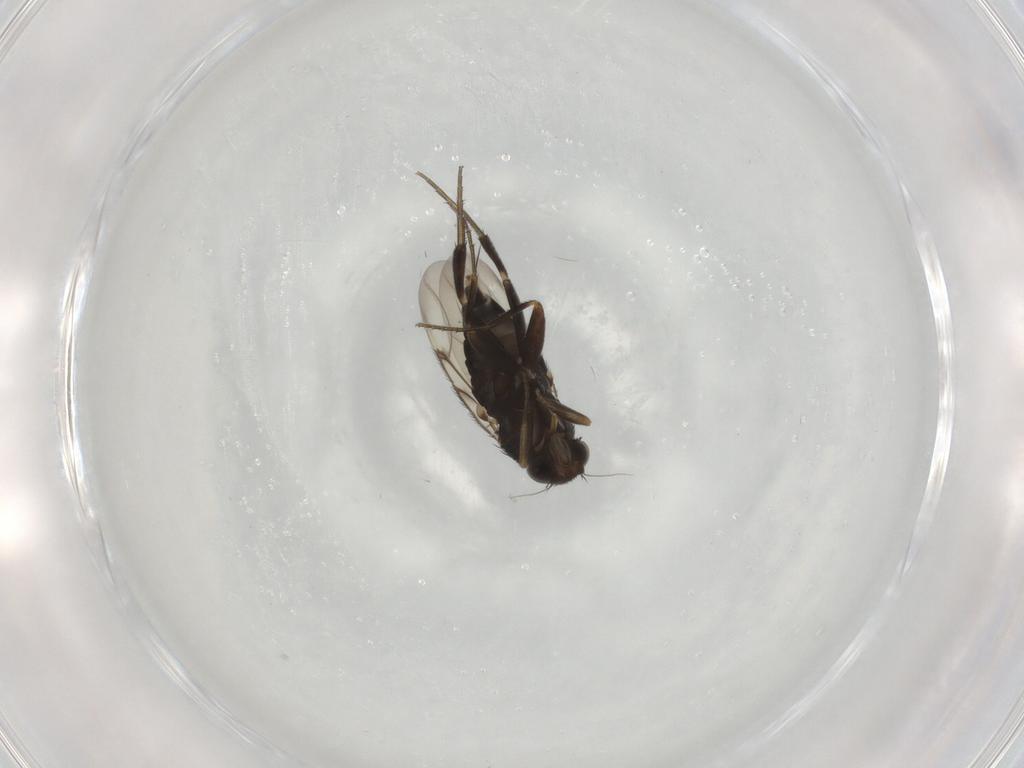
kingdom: Animalia
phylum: Arthropoda
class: Insecta
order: Diptera
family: Phoridae
